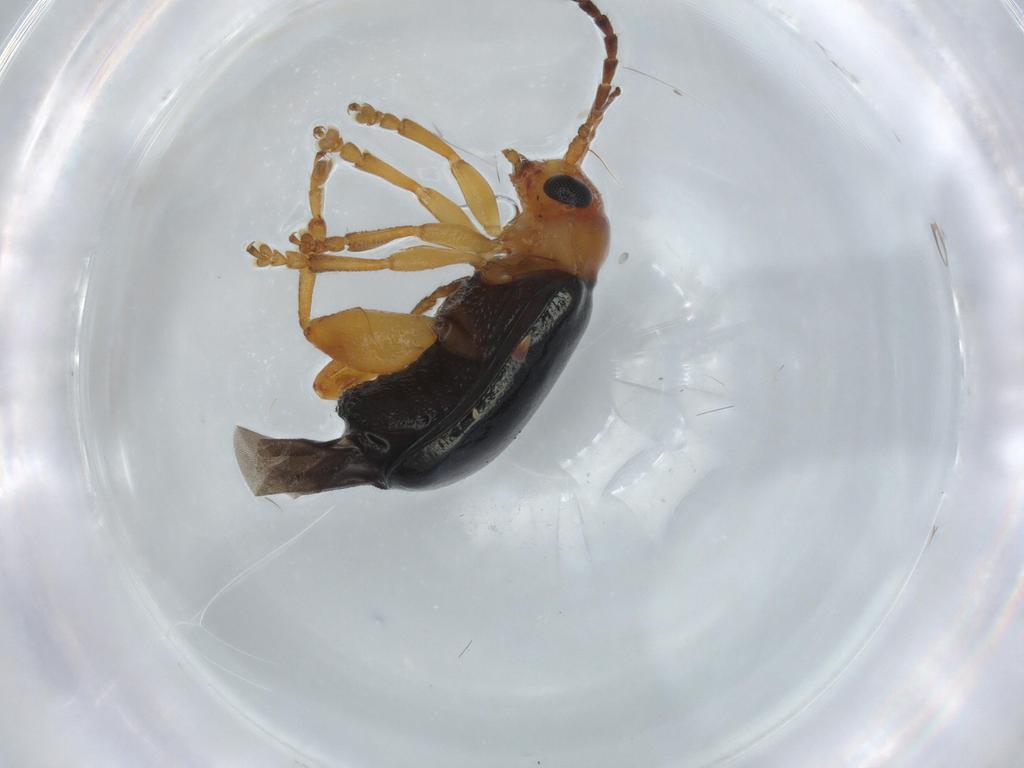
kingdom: Animalia
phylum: Arthropoda
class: Insecta
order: Coleoptera
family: Chrysomelidae
